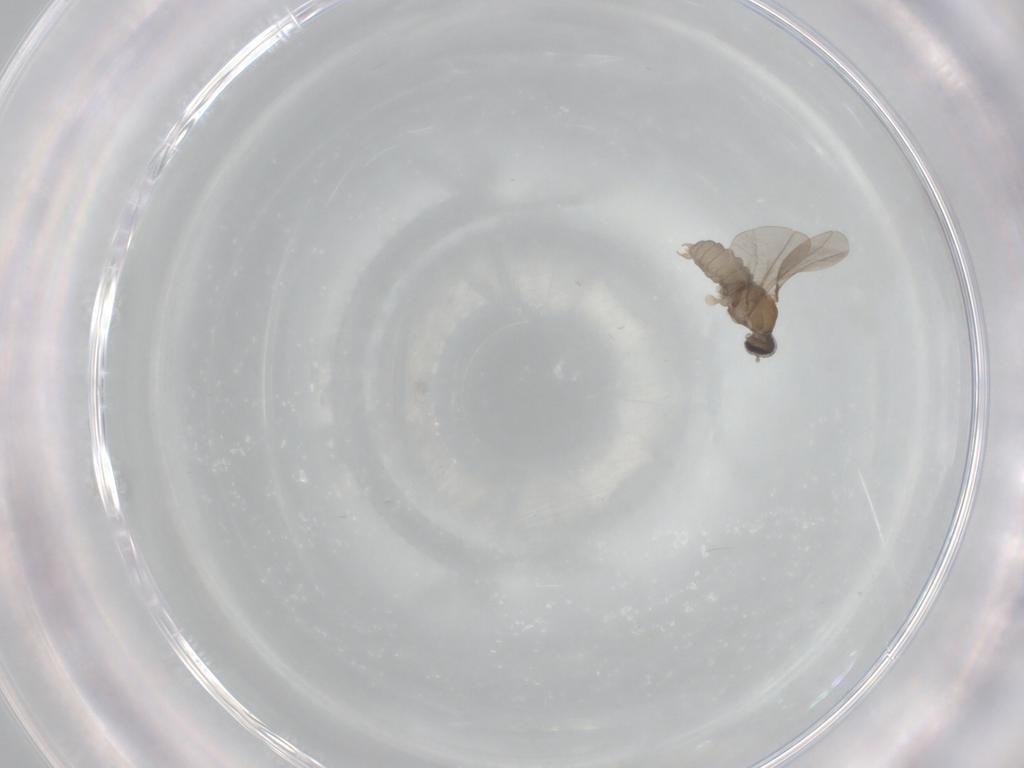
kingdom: Animalia
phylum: Arthropoda
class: Insecta
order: Diptera
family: Cecidomyiidae
